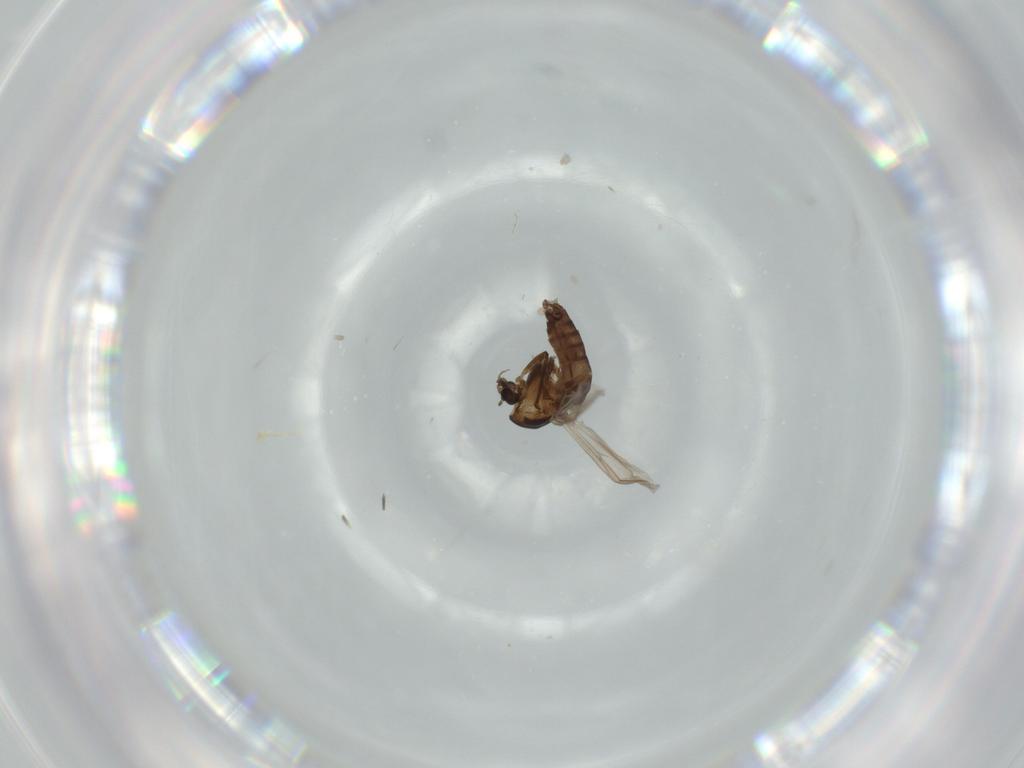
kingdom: Animalia
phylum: Arthropoda
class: Insecta
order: Diptera
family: Chironomidae
